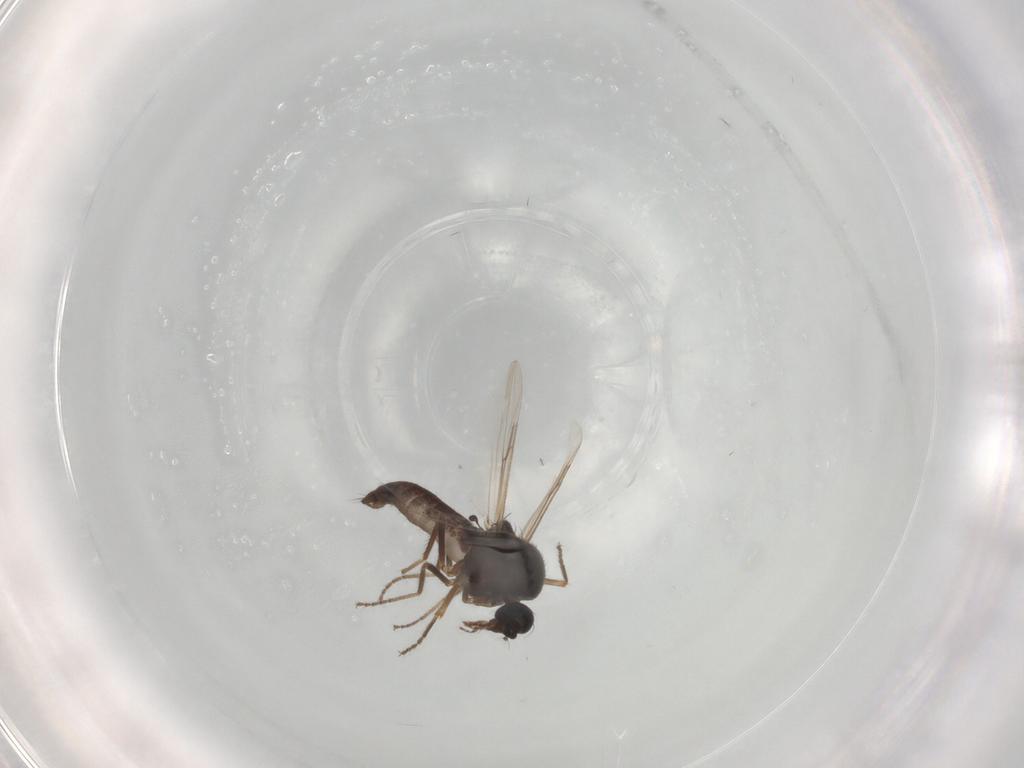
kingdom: Animalia
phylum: Arthropoda
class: Insecta
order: Diptera
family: Ceratopogonidae
